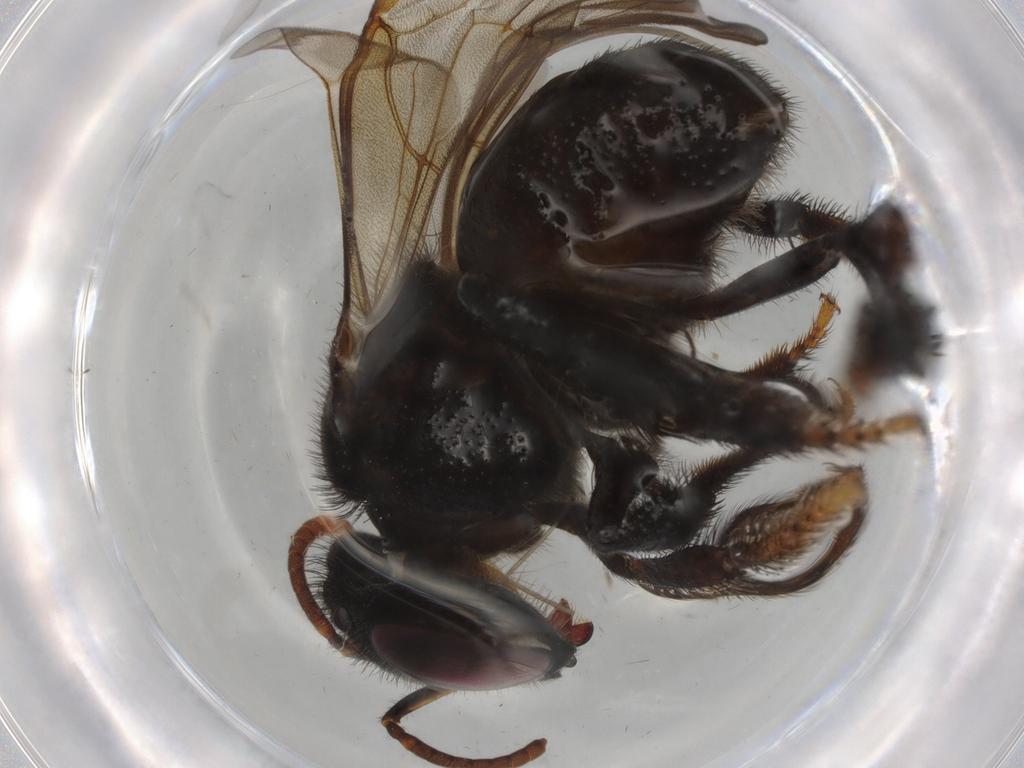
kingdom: Animalia
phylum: Arthropoda
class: Insecta
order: Diptera
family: Cecidomyiidae
